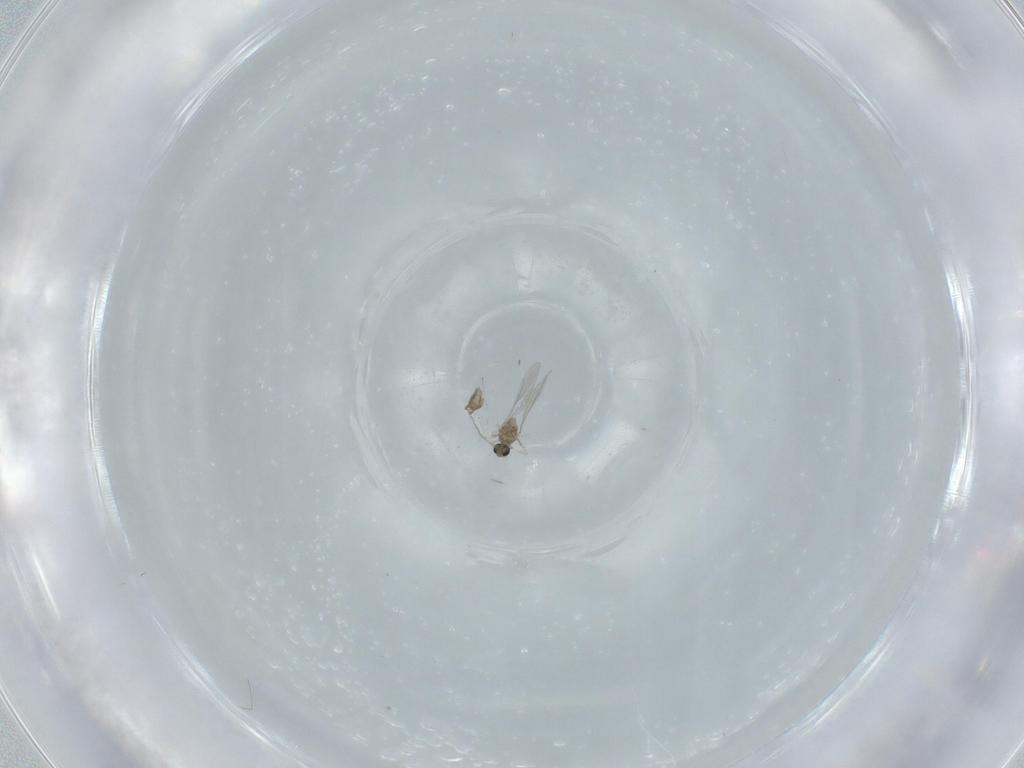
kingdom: Animalia
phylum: Arthropoda
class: Insecta
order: Diptera
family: Cecidomyiidae
